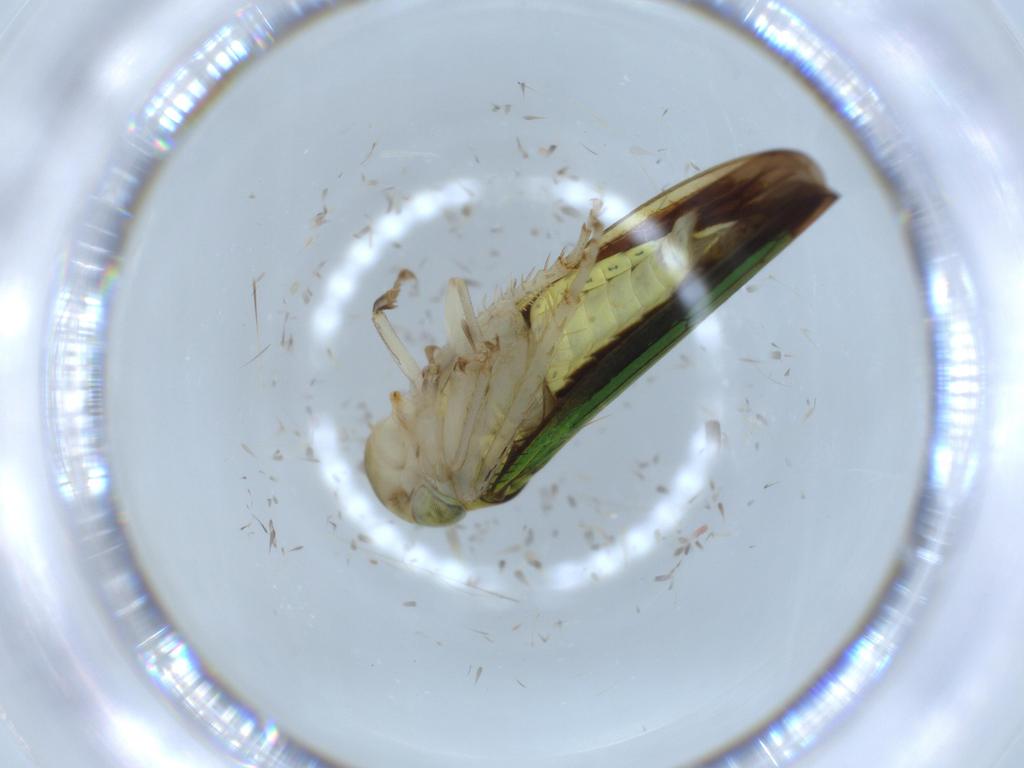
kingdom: Animalia
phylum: Arthropoda
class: Insecta
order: Hemiptera
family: Cicadellidae
